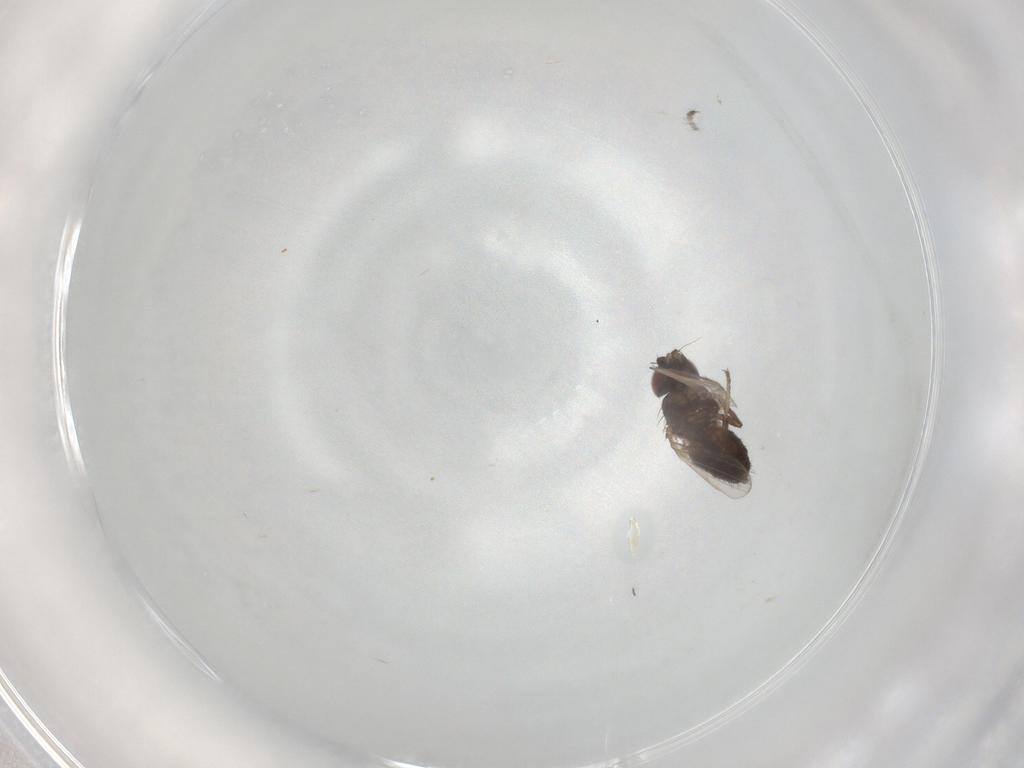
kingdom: Animalia
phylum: Arthropoda
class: Insecta
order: Diptera
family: Milichiidae
